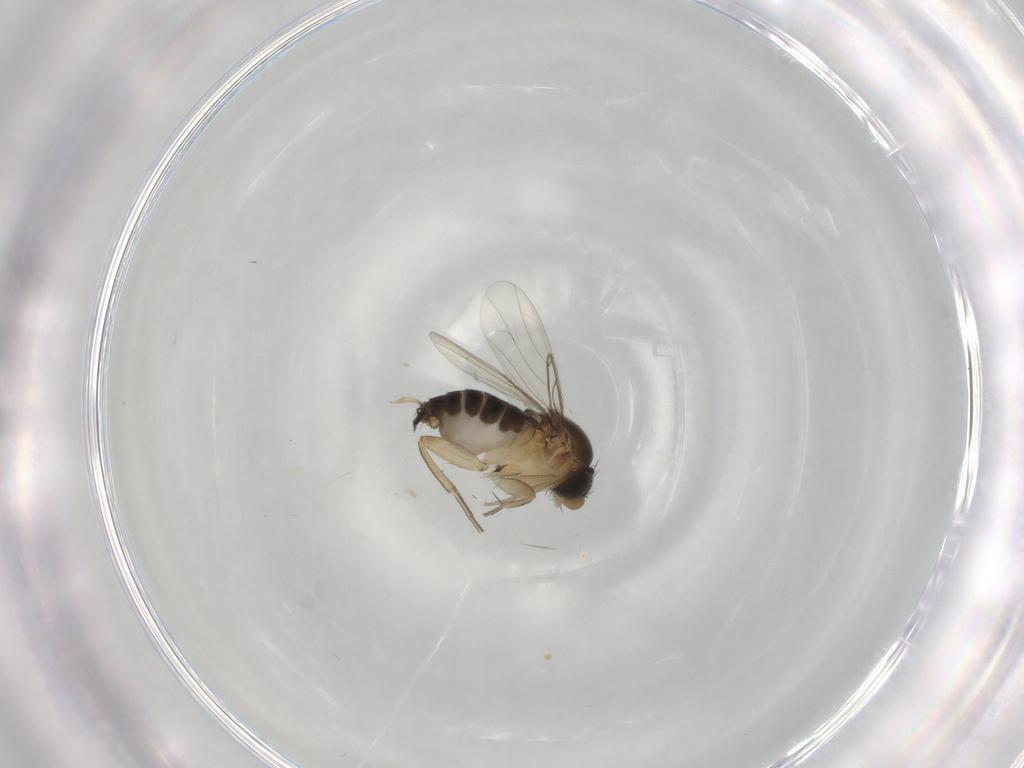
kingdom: Animalia
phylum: Arthropoda
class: Insecta
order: Diptera
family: Phoridae
